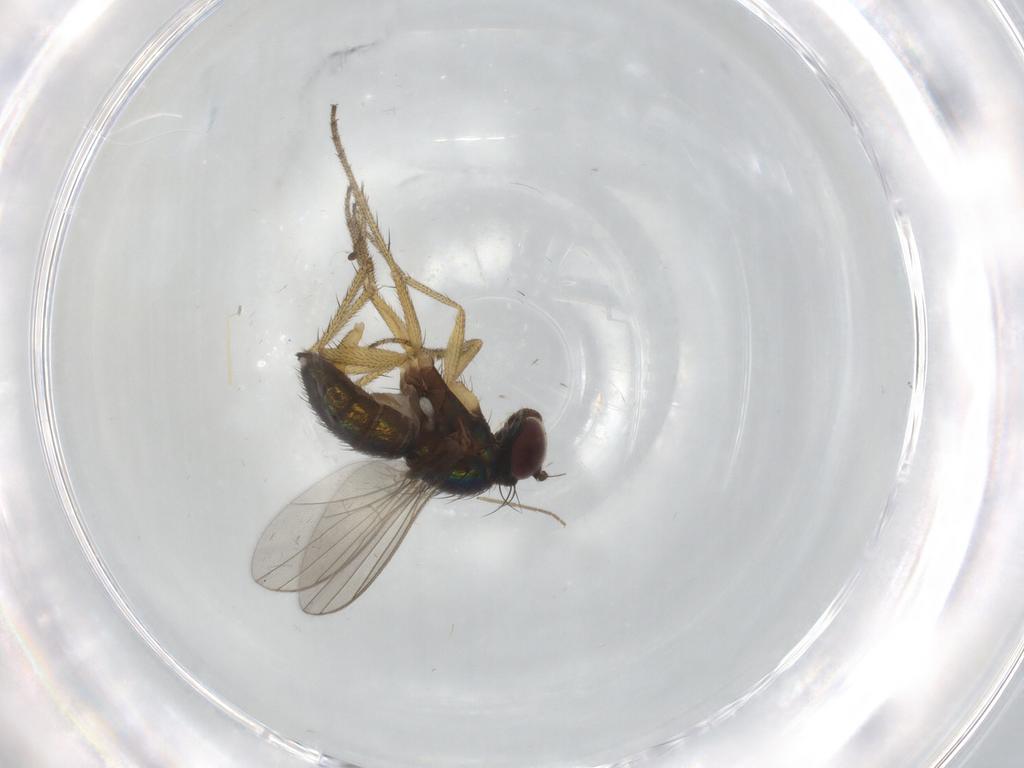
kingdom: Animalia
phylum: Arthropoda
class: Insecta
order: Diptera
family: Dolichopodidae
